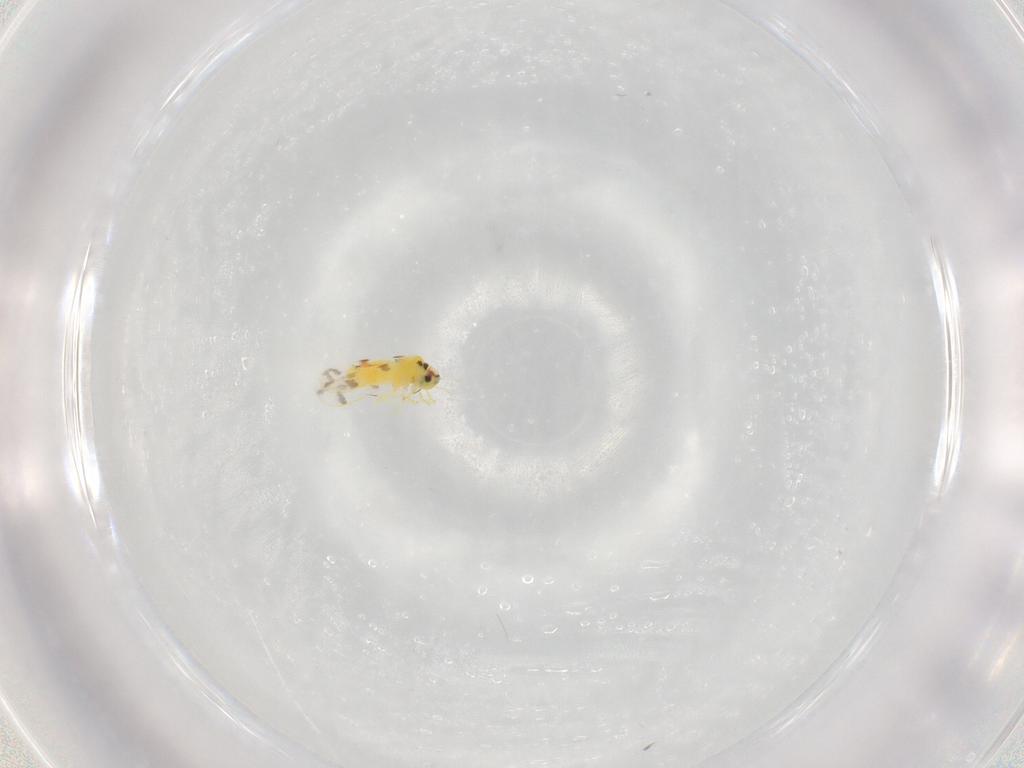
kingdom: Animalia
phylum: Arthropoda
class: Insecta
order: Hemiptera
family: Aleyrodidae
